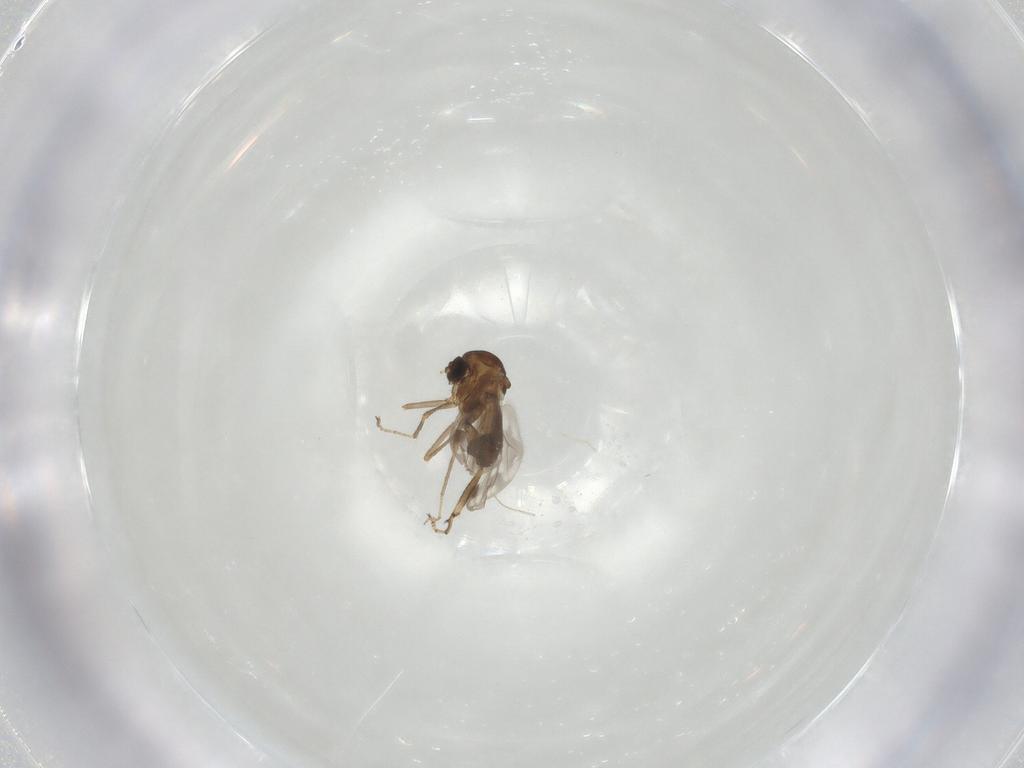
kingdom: Animalia
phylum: Arthropoda
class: Insecta
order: Diptera
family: Ceratopogonidae
